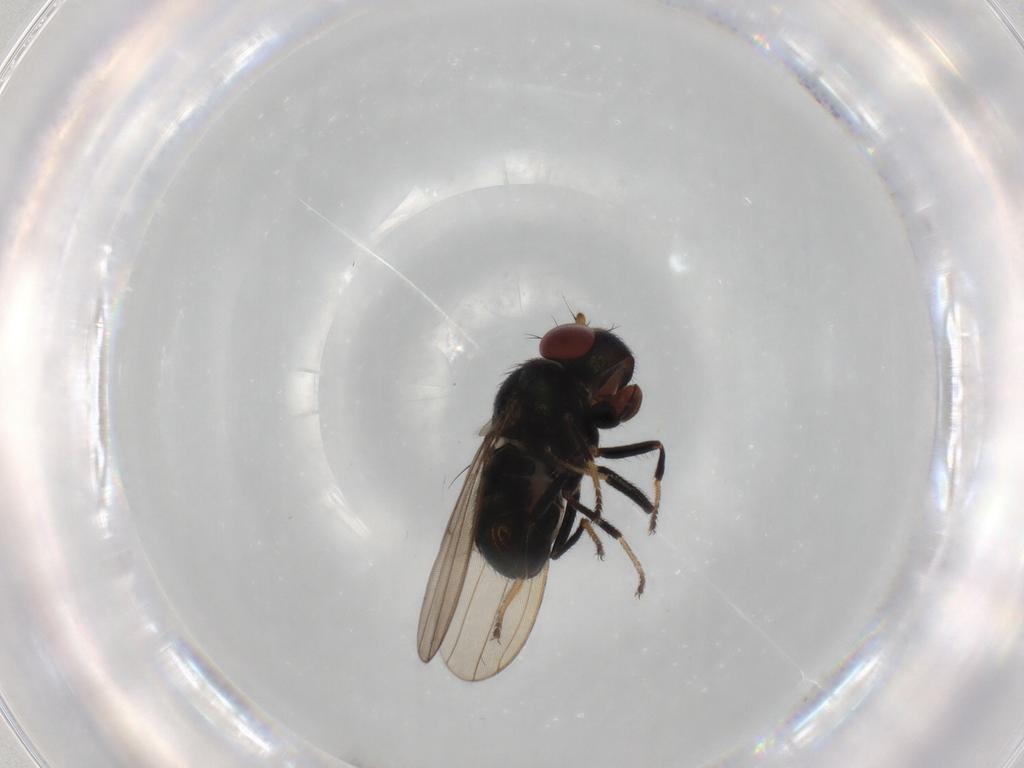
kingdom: Animalia
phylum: Arthropoda
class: Insecta
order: Diptera
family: Ephydridae
